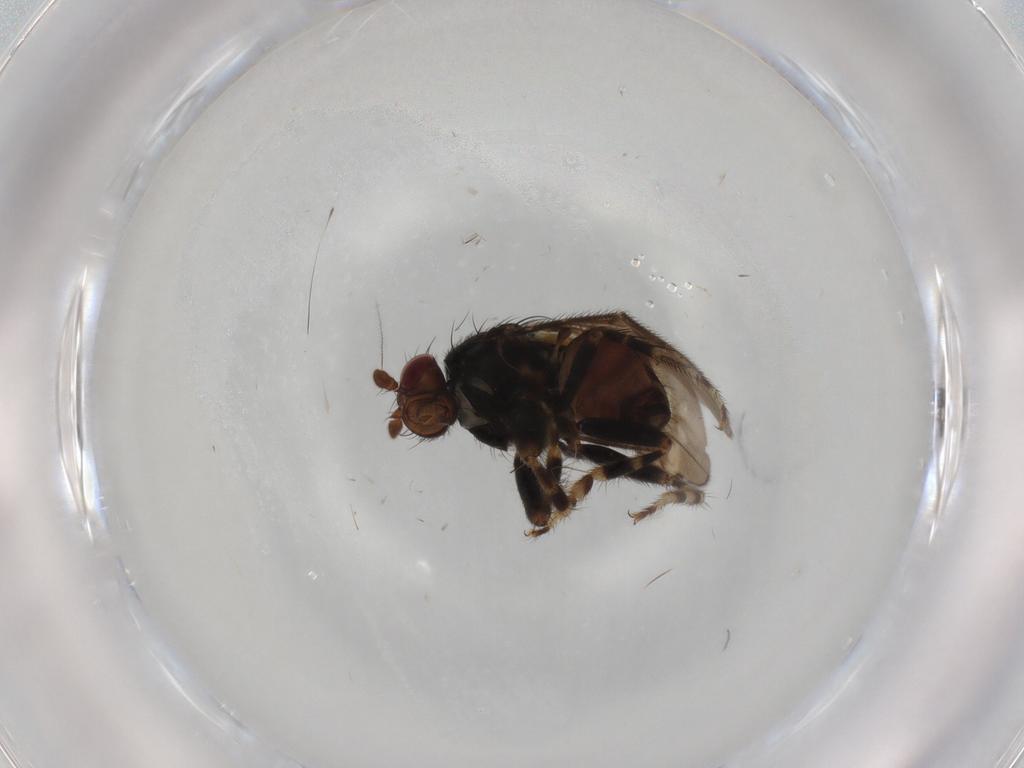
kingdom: Animalia
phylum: Arthropoda
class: Insecta
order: Diptera
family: Sphaeroceridae
